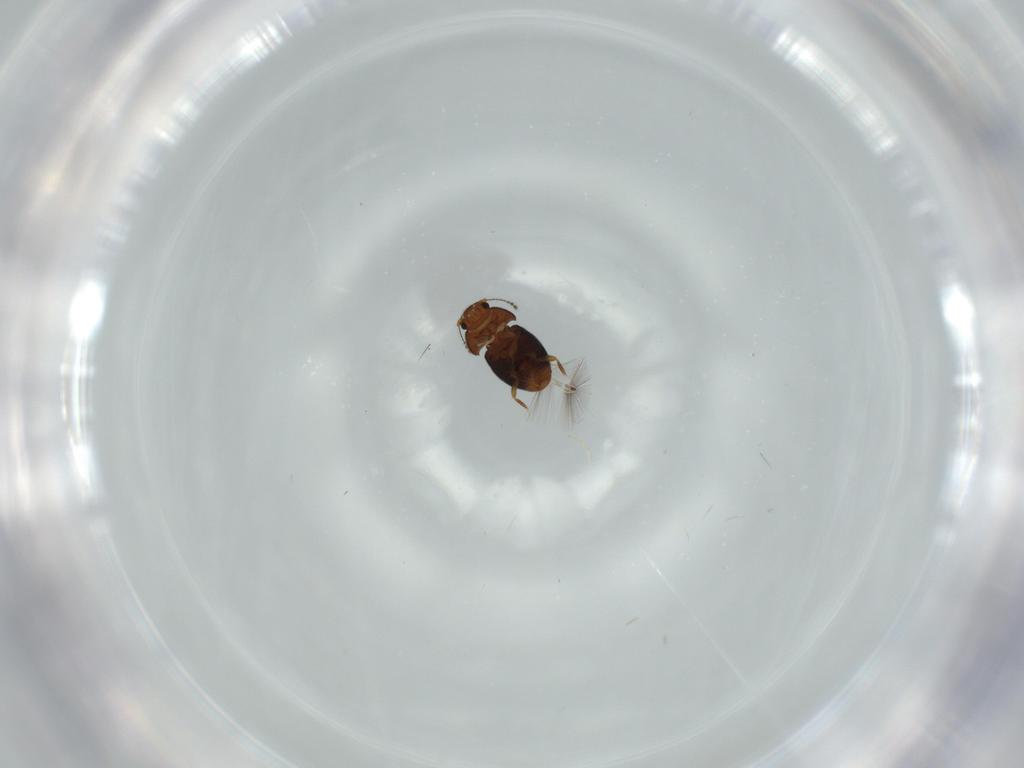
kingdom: Animalia
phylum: Arthropoda
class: Insecta
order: Coleoptera
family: Ptiliidae
